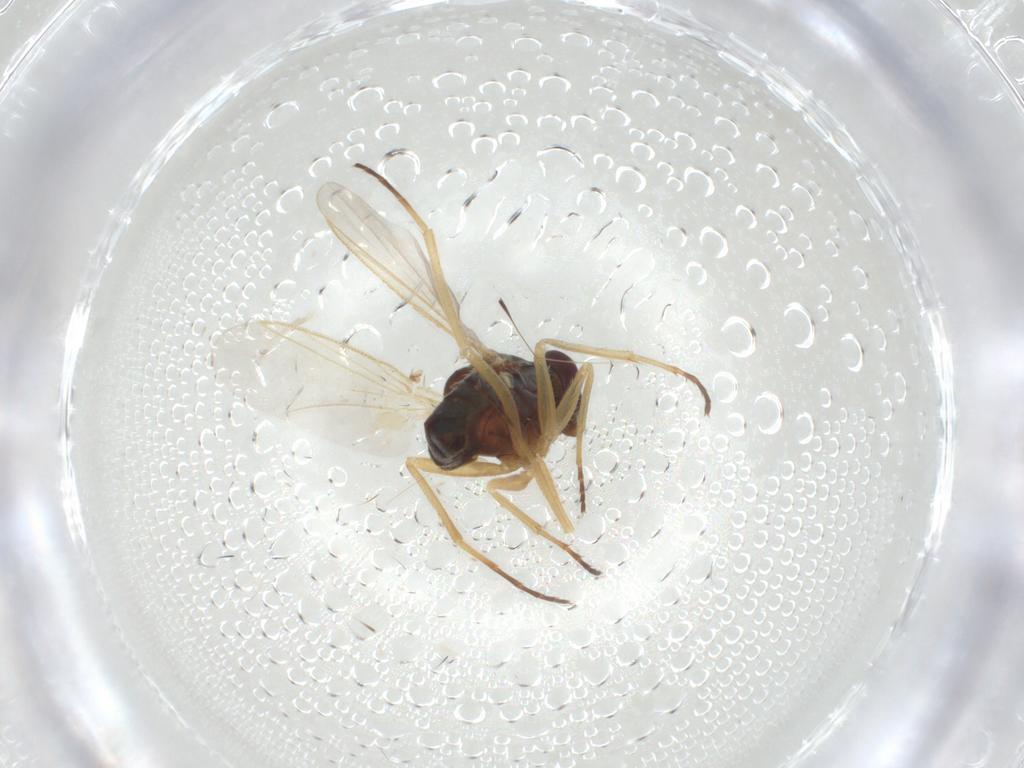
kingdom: Animalia
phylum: Arthropoda
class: Insecta
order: Diptera
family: Dolichopodidae
